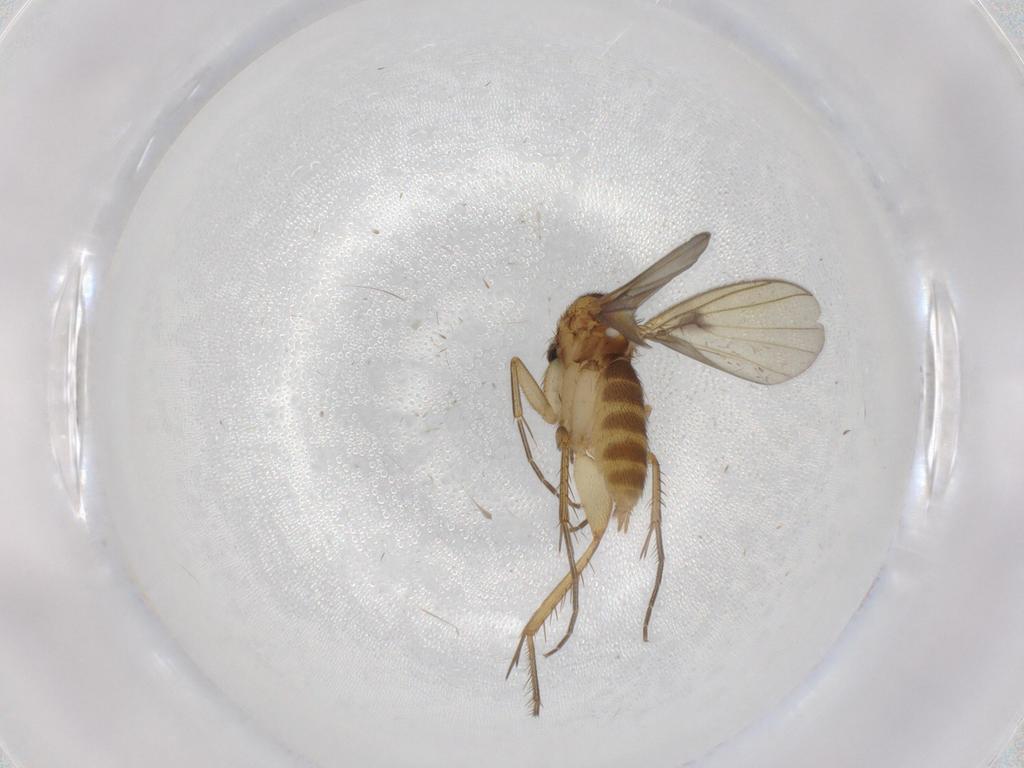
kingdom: Animalia
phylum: Arthropoda
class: Insecta
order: Diptera
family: Mycetophilidae
